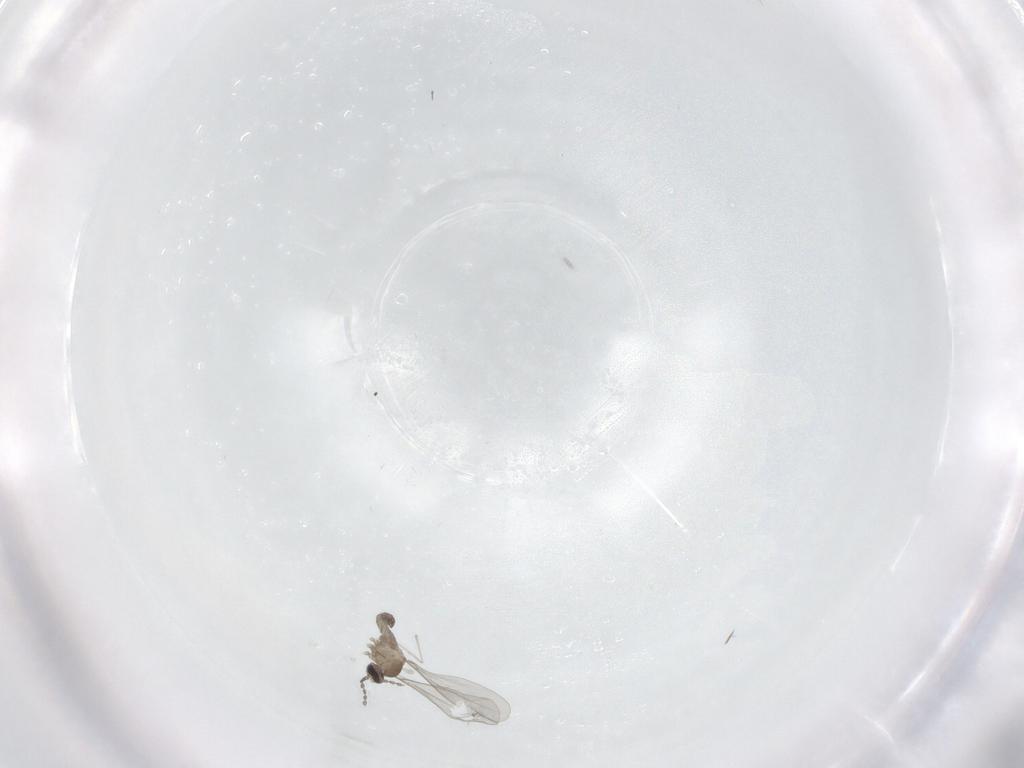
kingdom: Animalia
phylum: Arthropoda
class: Insecta
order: Diptera
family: Cecidomyiidae
